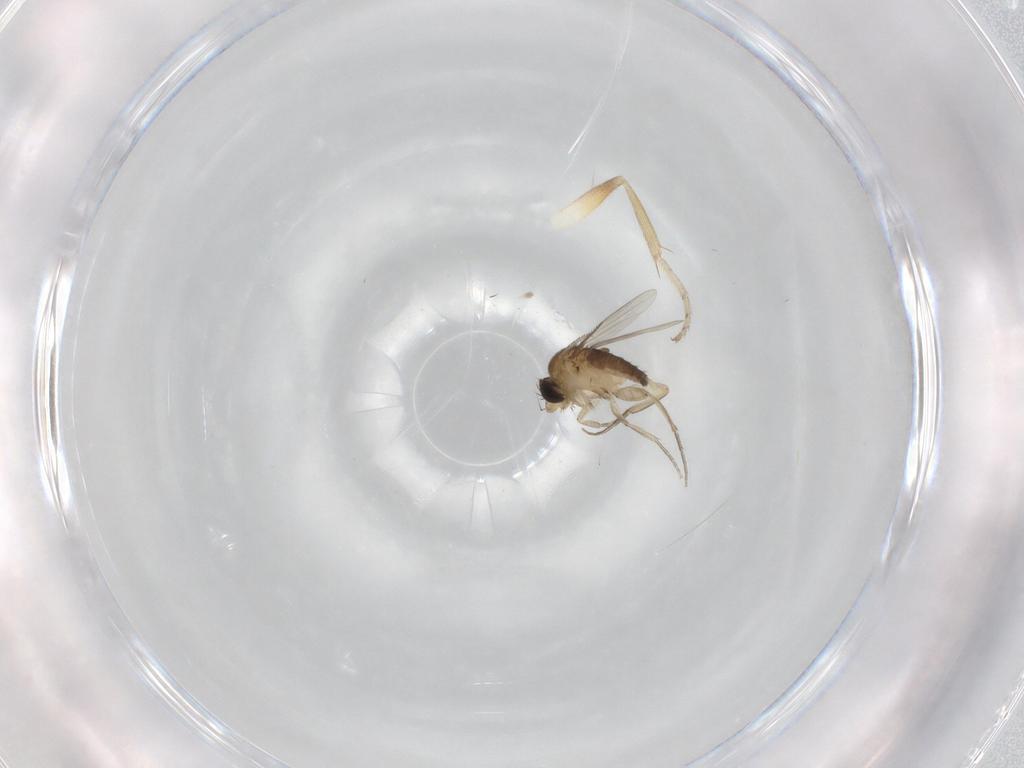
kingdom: Animalia
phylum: Arthropoda
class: Insecta
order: Diptera
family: Phoridae
